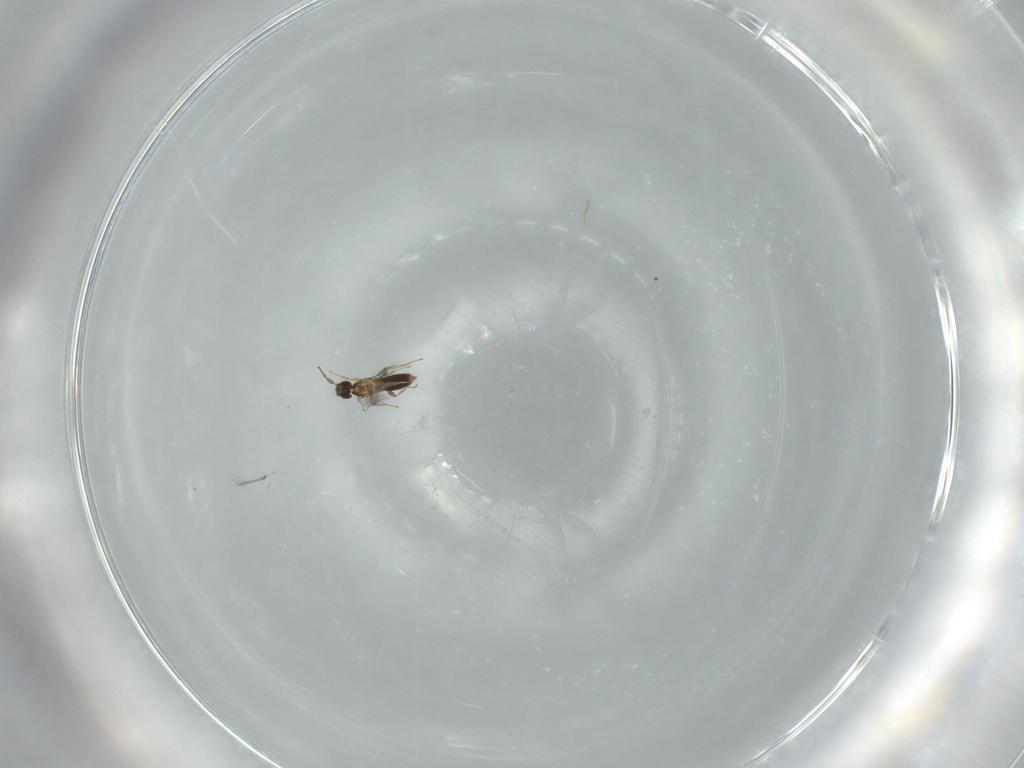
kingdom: Animalia
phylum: Arthropoda
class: Insecta
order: Hymenoptera
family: Mymaridae
